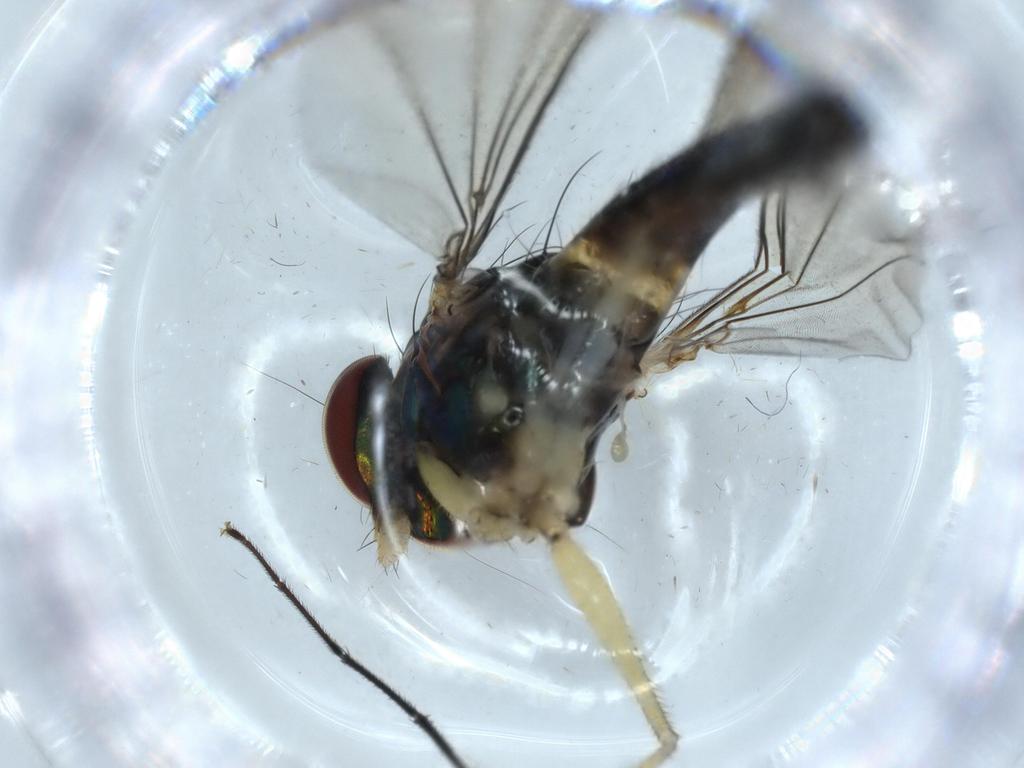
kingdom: Animalia
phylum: Arthropoda
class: Insecta
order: Diptera
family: Dolichopodidae
